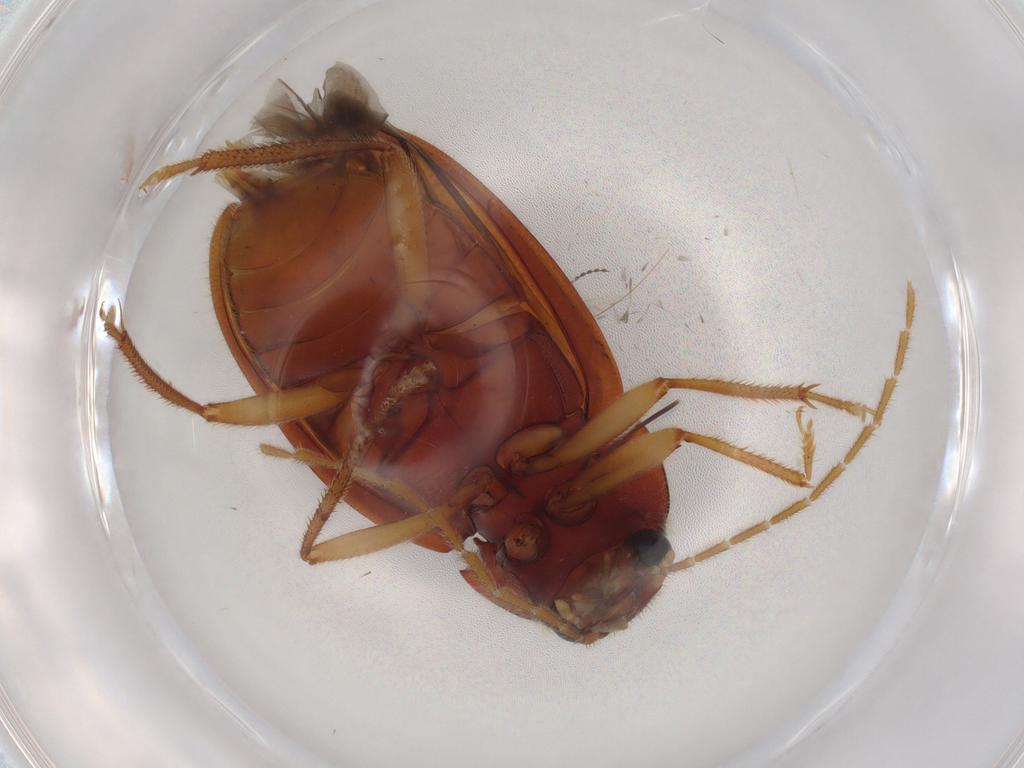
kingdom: Animalia
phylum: Arthropoda
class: Insecta
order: Coleoptera
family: Ptilodactylidae
